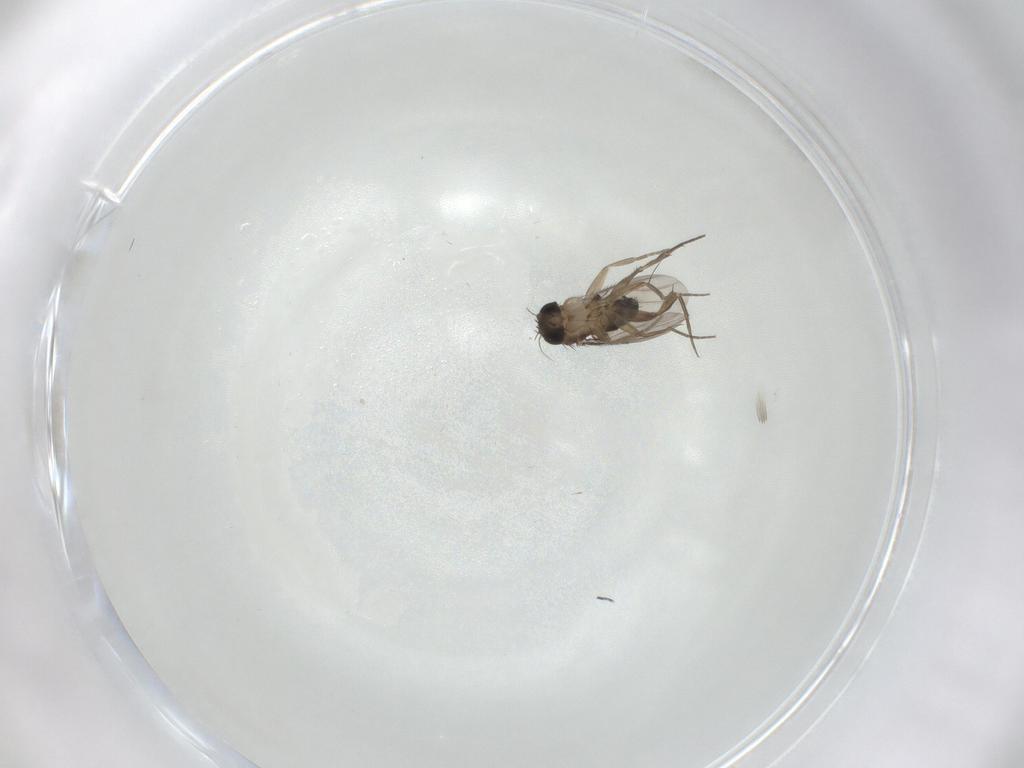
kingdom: Animalia
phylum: Arthropoda
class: Insecta
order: Diptera
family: Phoridae
